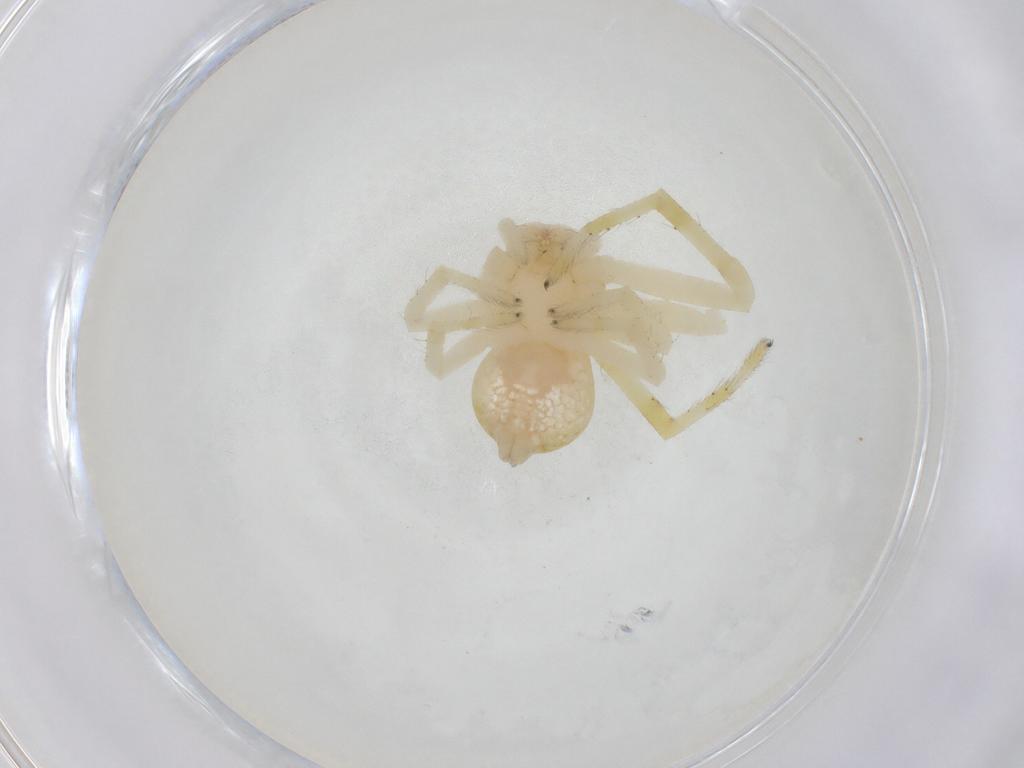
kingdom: Animalia
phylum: Arthropoda
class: Arachnida
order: Araneae
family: Thomisidae
